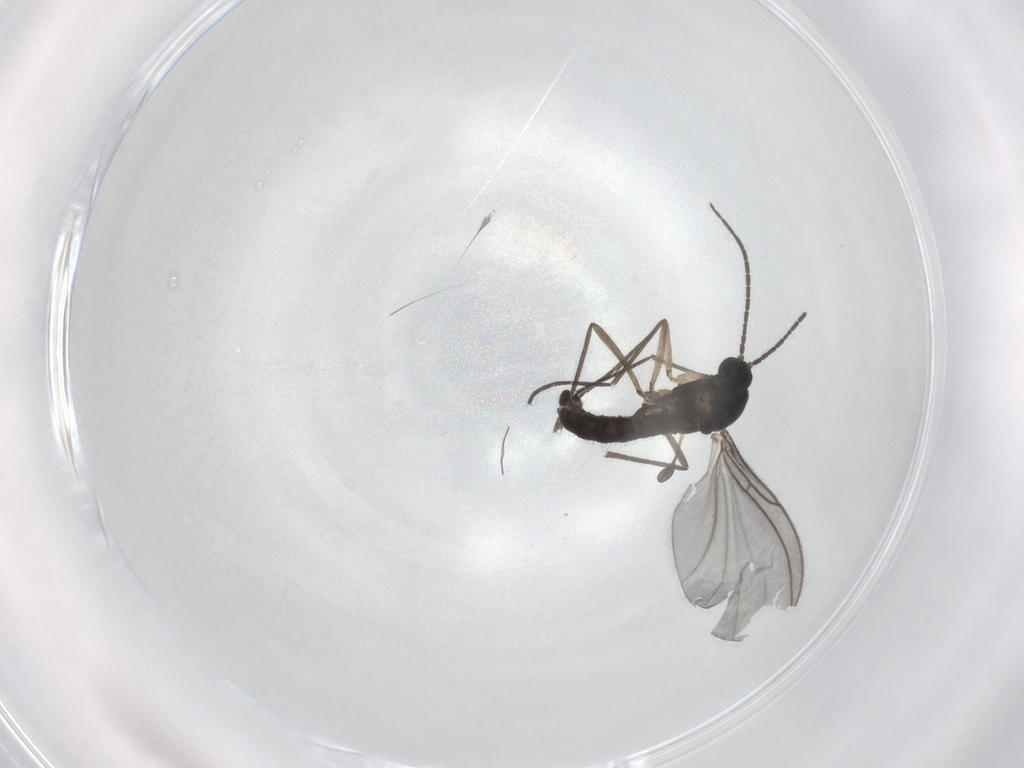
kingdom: Animalia
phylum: Arthropoda
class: Insecta
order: Diptera
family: Sciaridae
